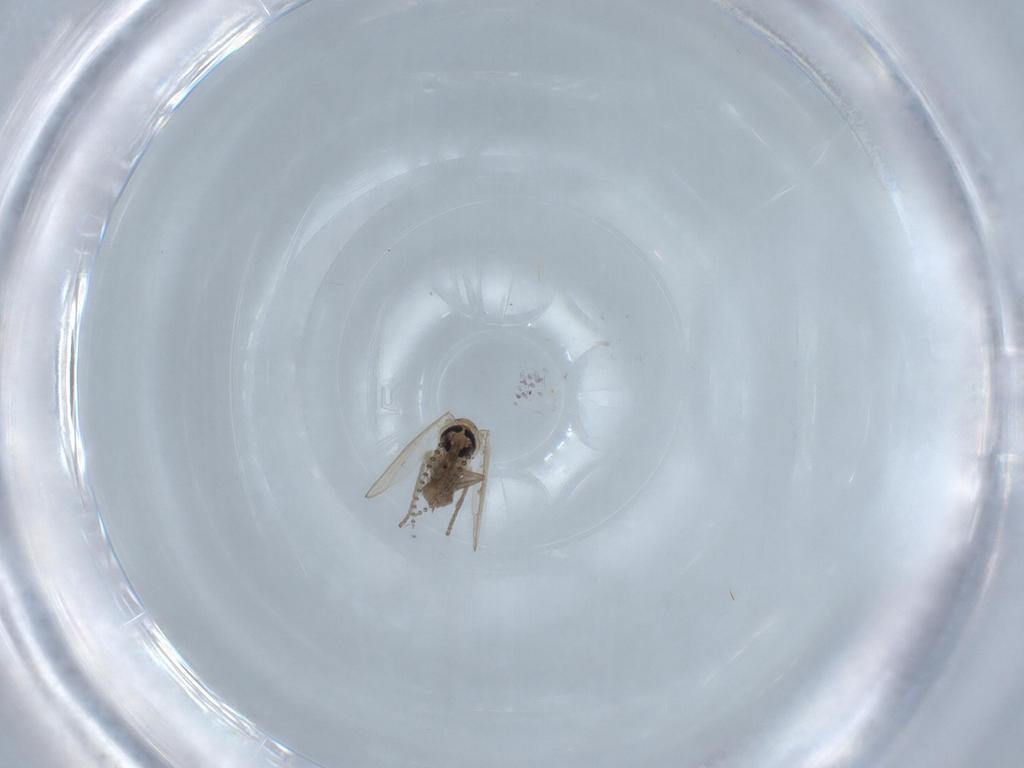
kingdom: Animalia
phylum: Arthropoda
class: Insecta
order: Diptera
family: Psychodidae
